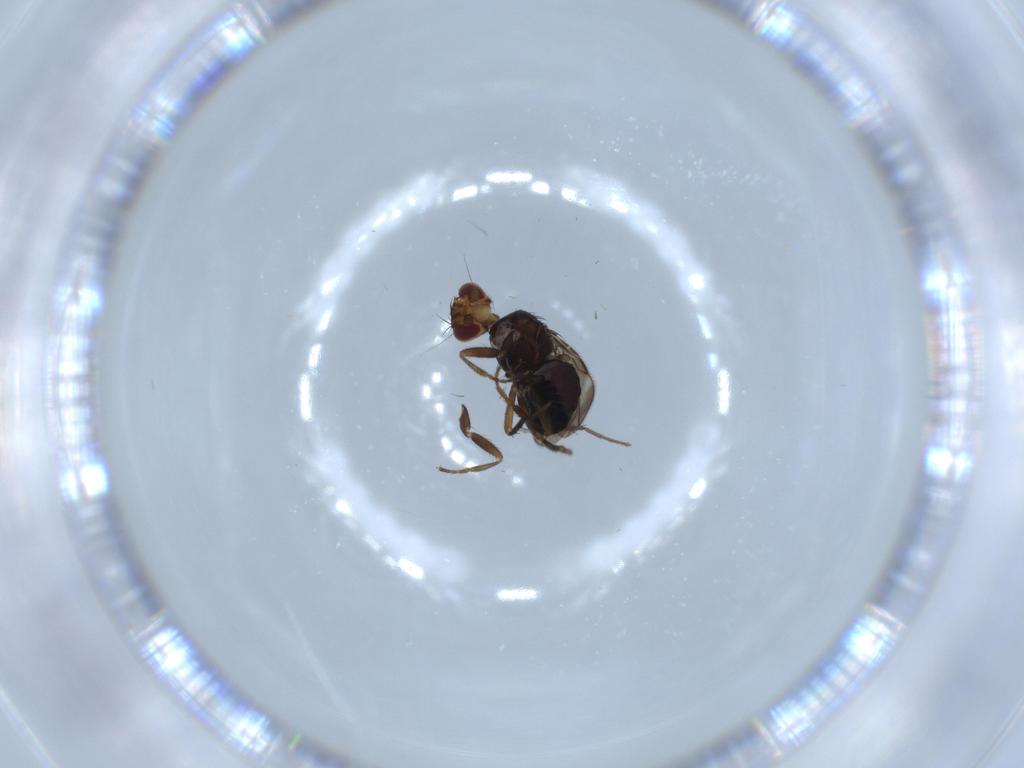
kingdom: Animalia
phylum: Arthropoda
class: Insecta
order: Diptera
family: Sphaeroceridae
